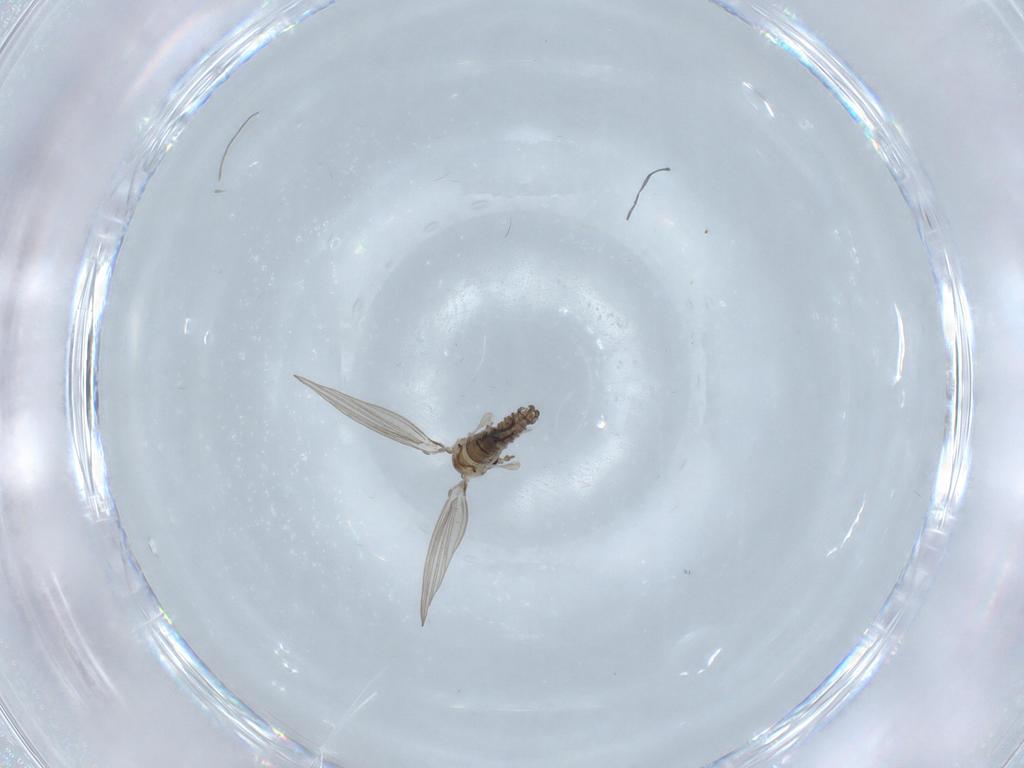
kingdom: Animalia
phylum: Arthropoda
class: Insecta
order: Diptera
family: Psychodidae
